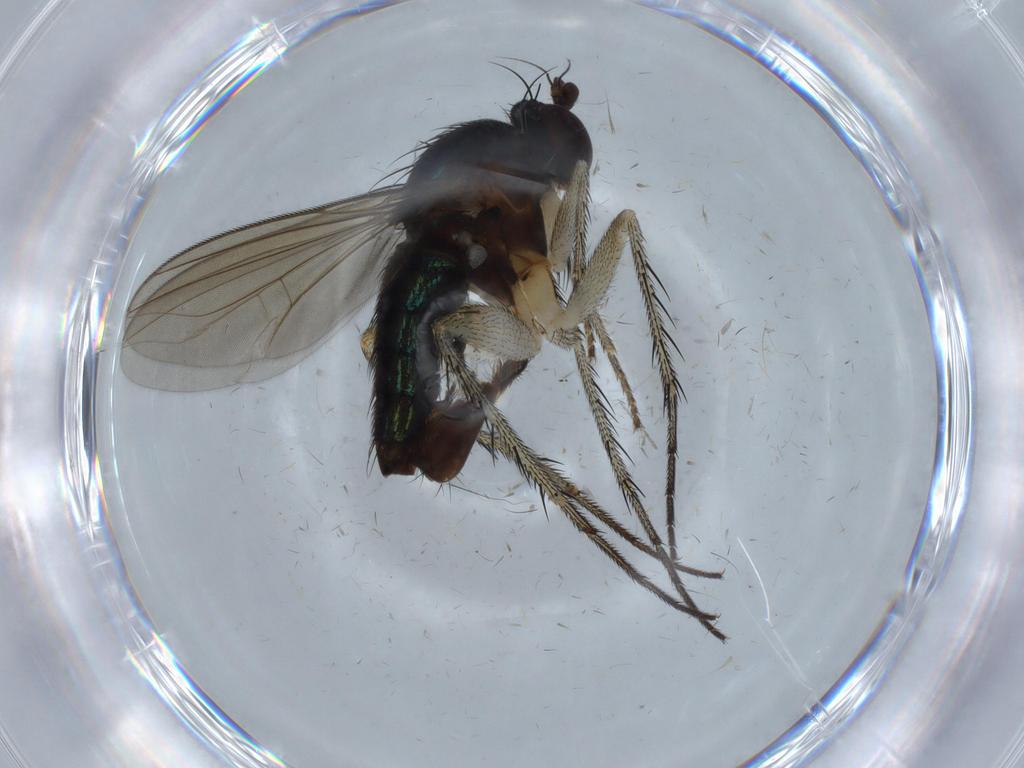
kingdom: Animalia
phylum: Arthropoda
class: Insecta
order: Diptera
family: Dolichopodidae
